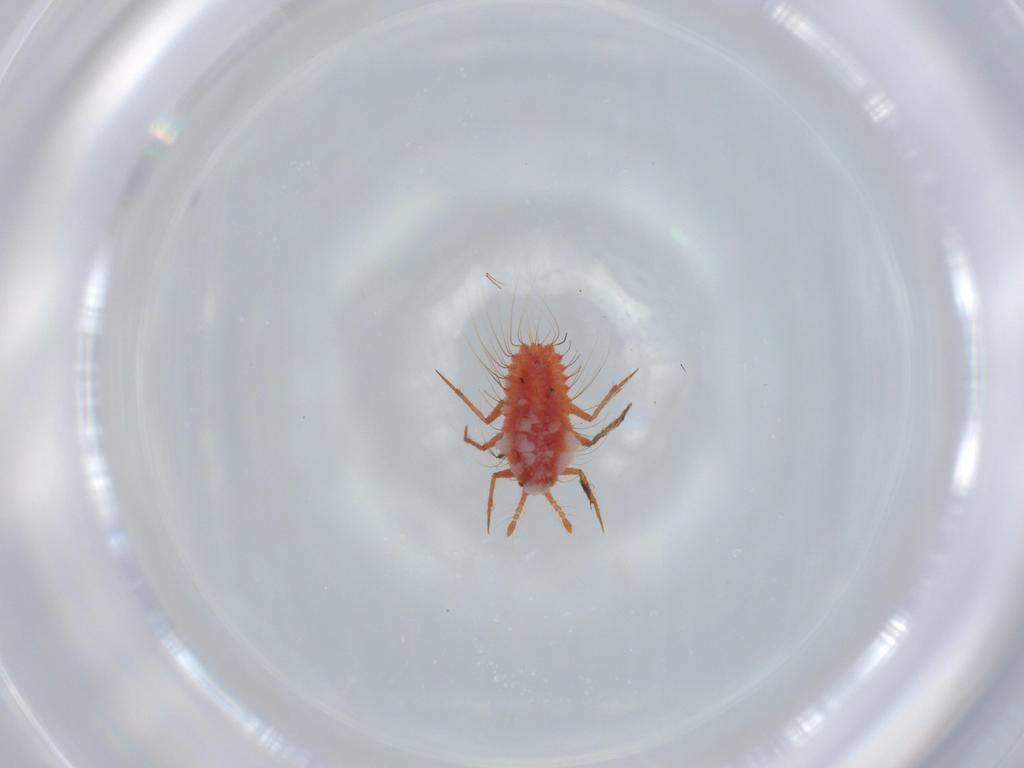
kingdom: Animalia
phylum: Arthropoda
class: Insecta
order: Hemiptera
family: Monophlebidae
